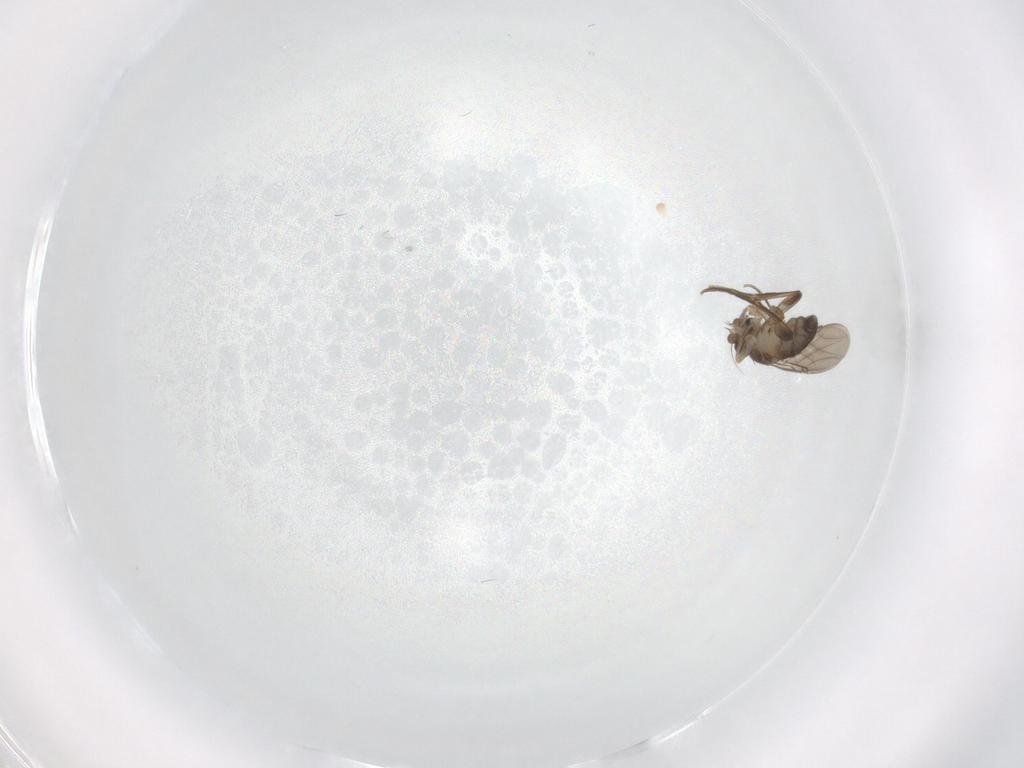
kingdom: Animalia
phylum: Arthropoda
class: Insecta
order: Diptera
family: Phoridae
